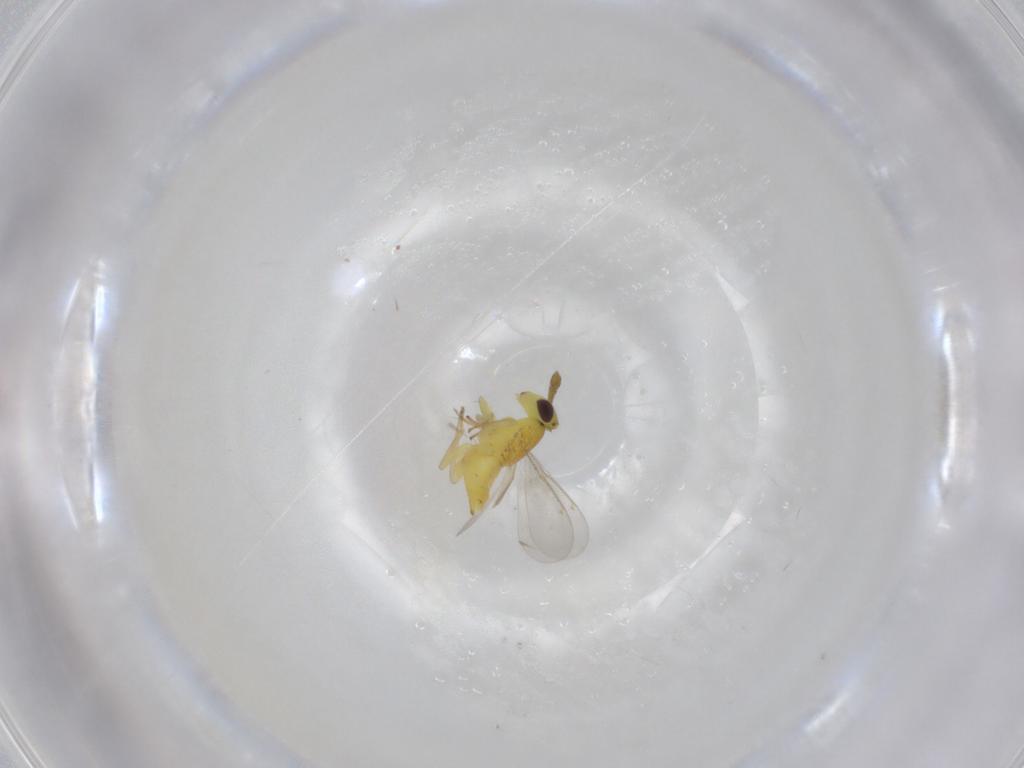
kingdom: Animalia
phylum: Arthropoda
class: Insecta
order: Hymenoptera
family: Aphelinidae
